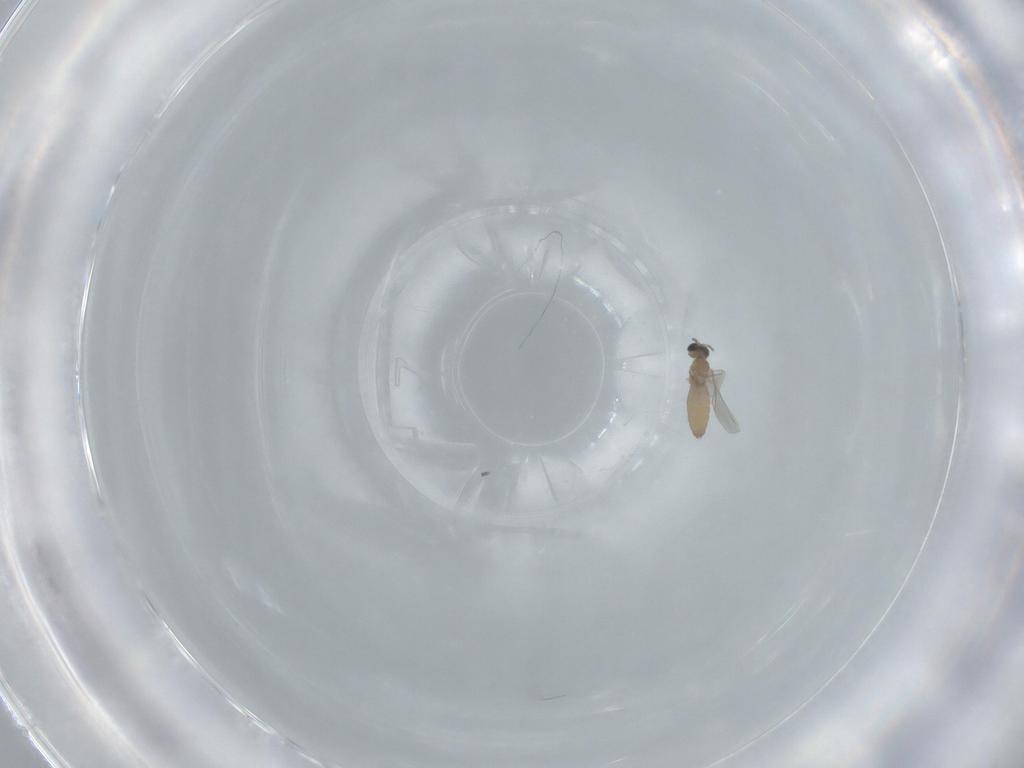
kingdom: Animalia
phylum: Arthropoda
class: Insecta
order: Diptera
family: Cecidomyiidae
